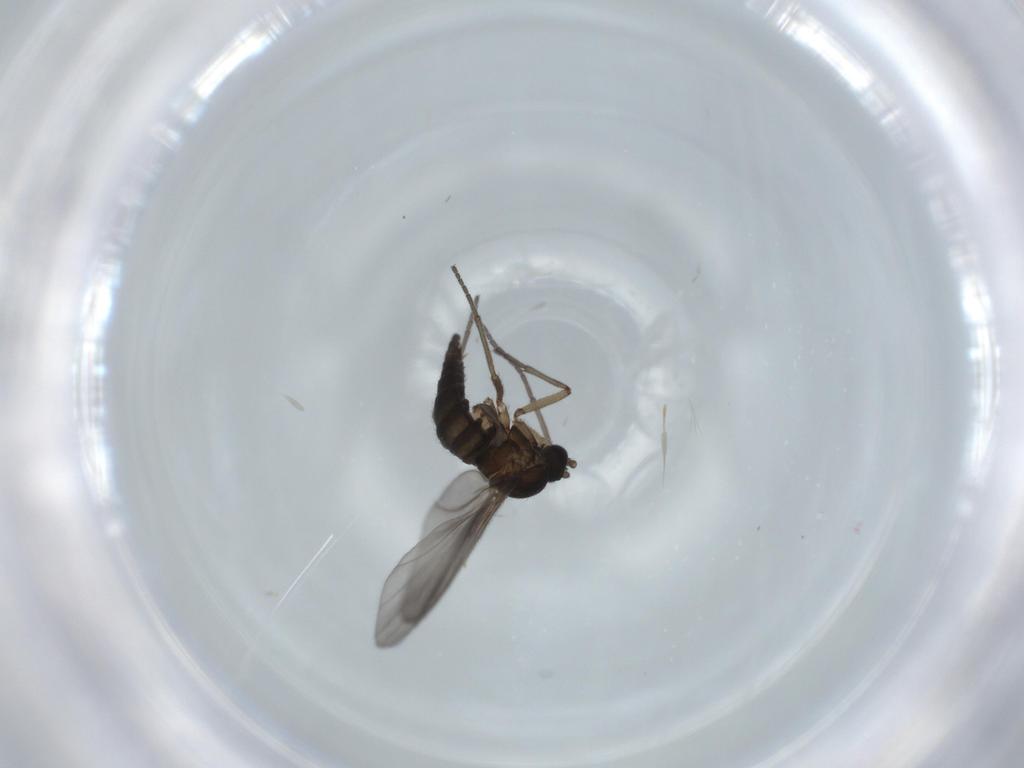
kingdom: Animalia
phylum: Arthropoda
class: Insecta
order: Diptera
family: Sciaridae
